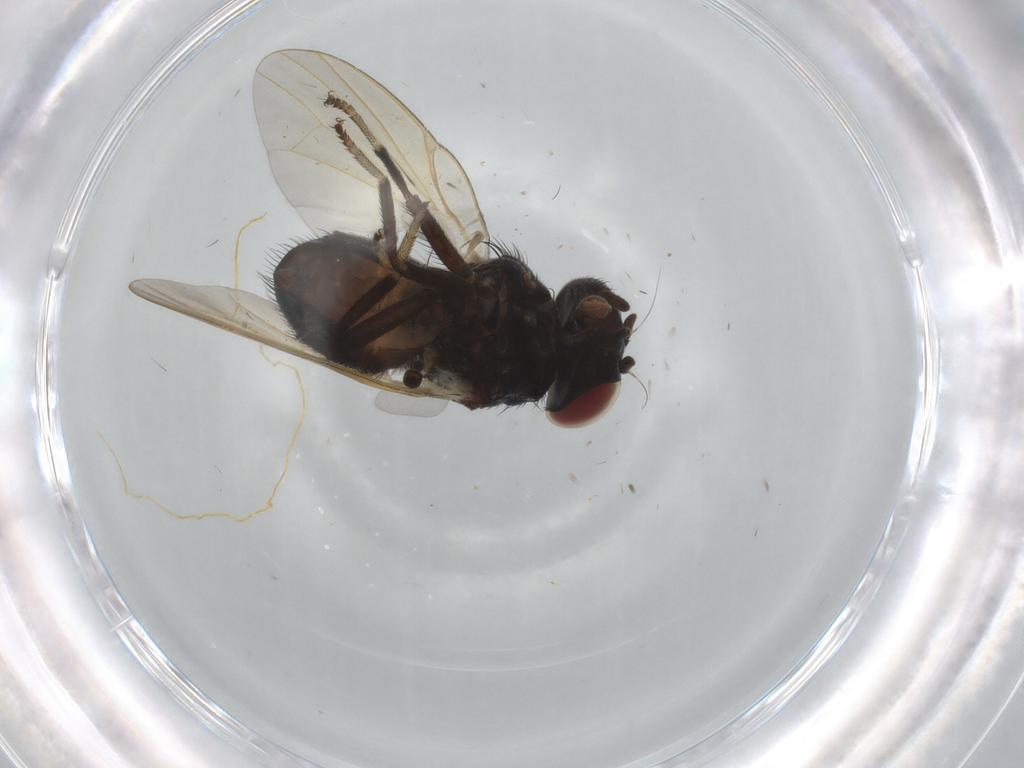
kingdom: Animalia
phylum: Arthropoda
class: Insecta
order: Diptera
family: Lonchaeidae
